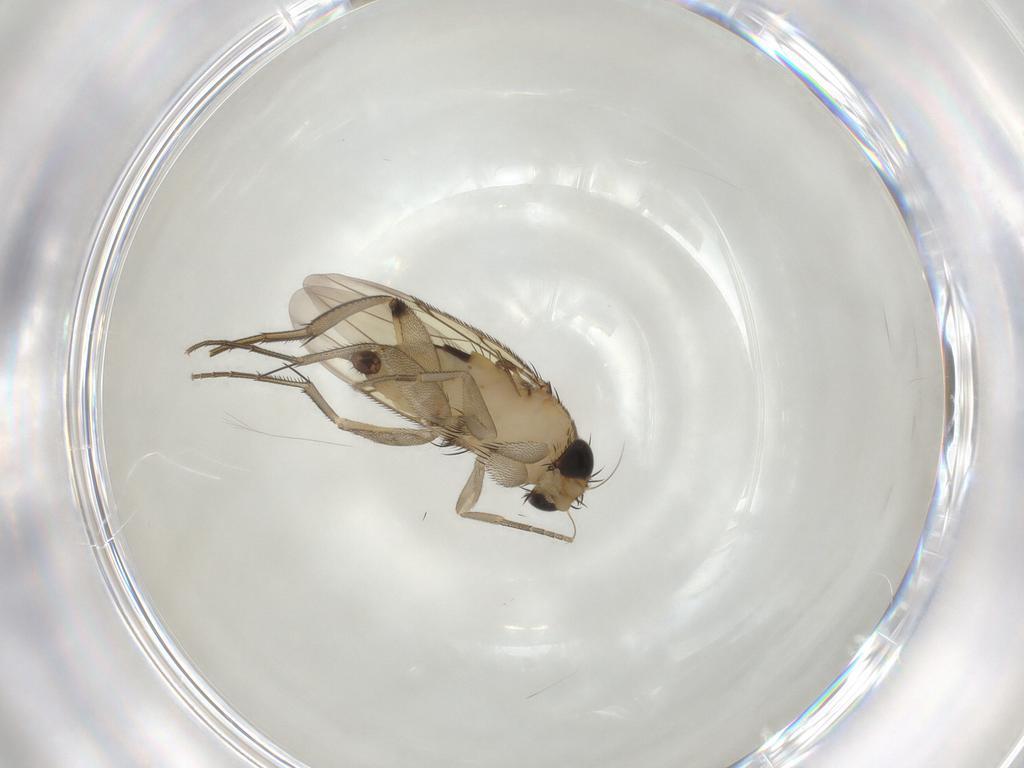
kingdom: Animalia
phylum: Arthropoda
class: Insecta
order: Diptera
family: Phoridae
